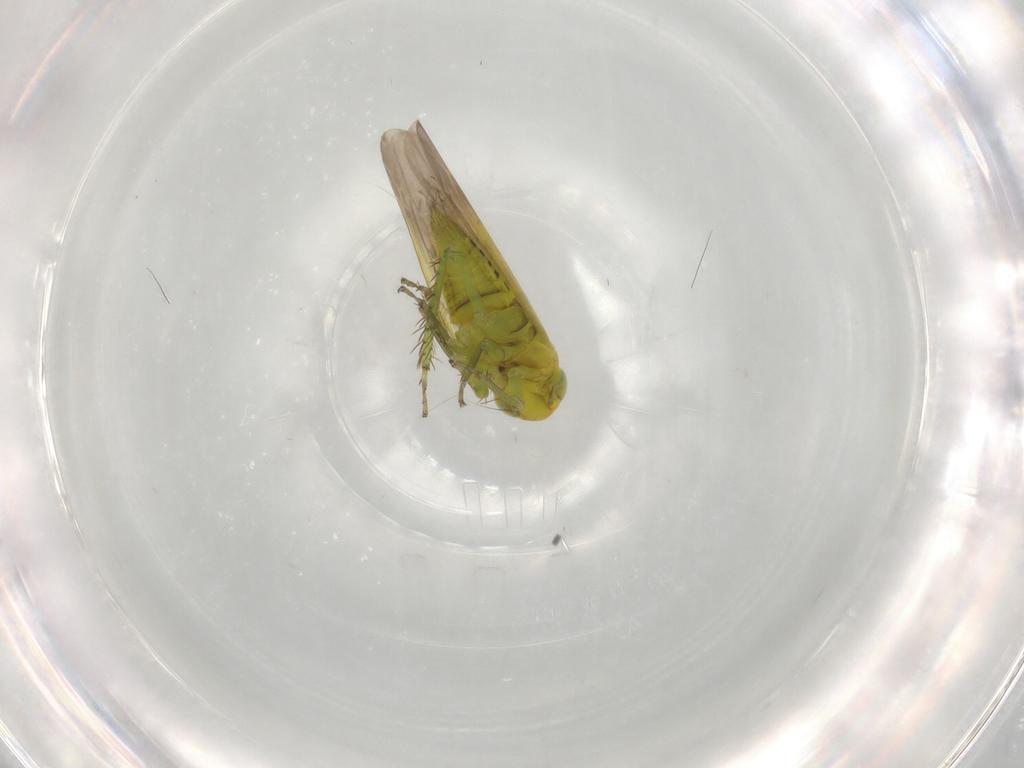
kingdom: Animalia
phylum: Arthropoda
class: Insecta
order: Hemiptera
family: Cicadellidae
